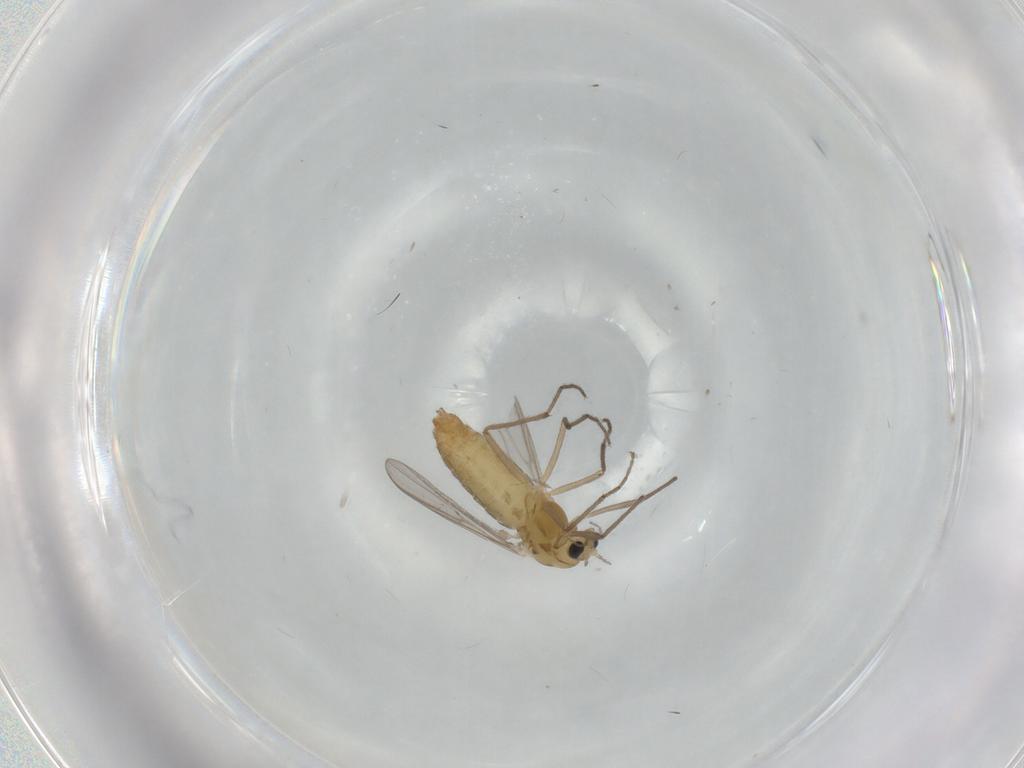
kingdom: Animalia
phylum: Arthropoda
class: Insecta
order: Diptera
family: Chironomidae
